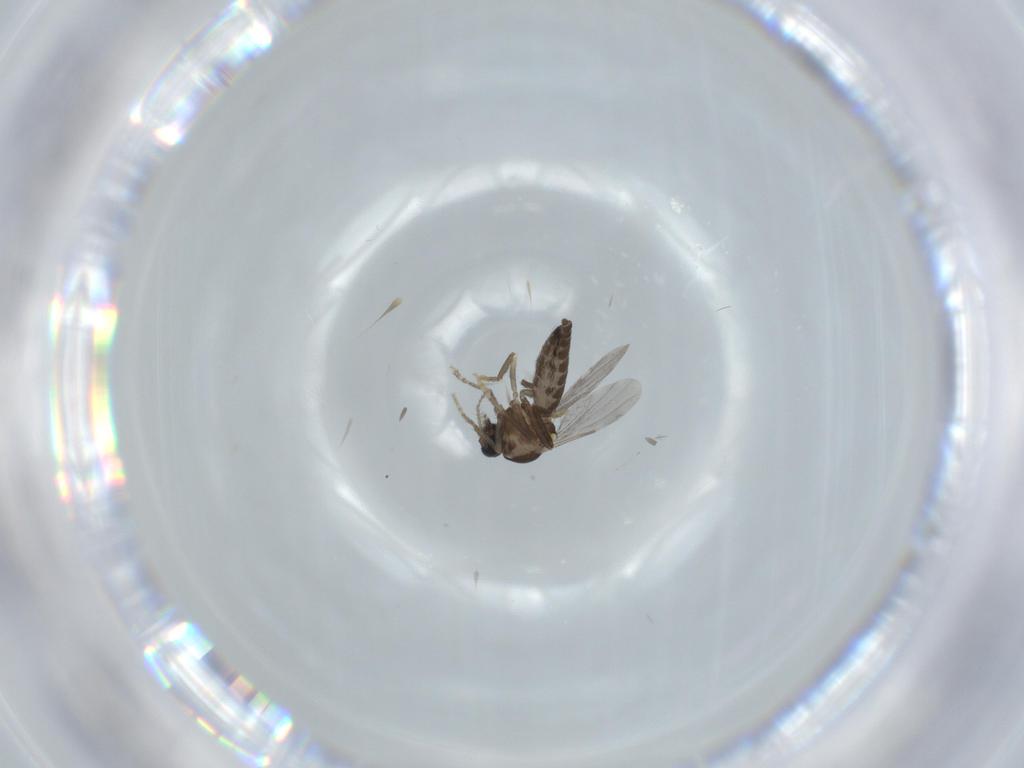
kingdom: Animalia
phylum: Arthropoda
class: Insecta
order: Diptera
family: Ceratopogonidae
